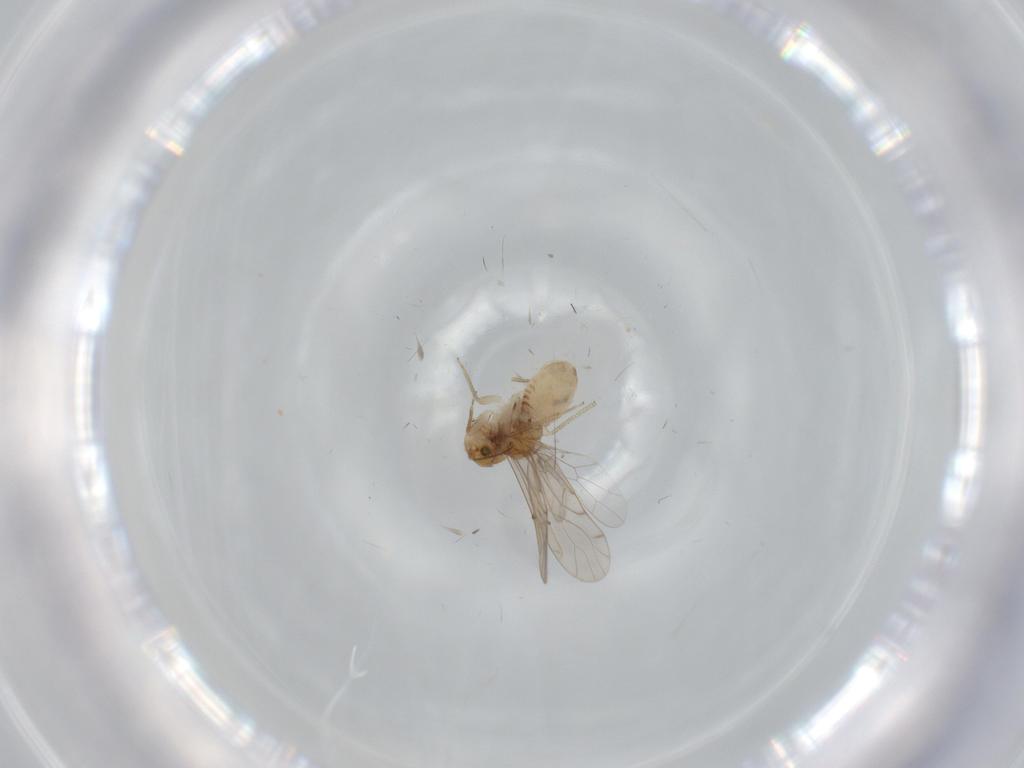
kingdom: Animalia
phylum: Arthropoda
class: Insecta
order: Psocodea
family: Ectopsocidae
